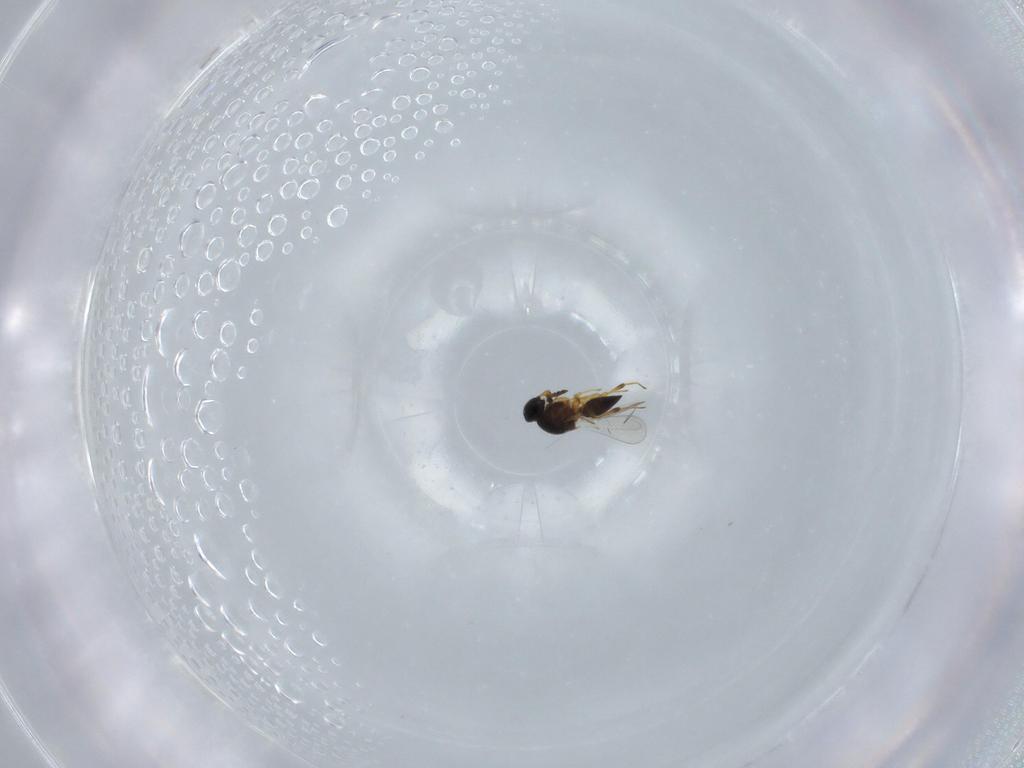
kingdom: Animalia
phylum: Arthropoda
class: Insecta
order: Hymenoptera
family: Platygastridae
